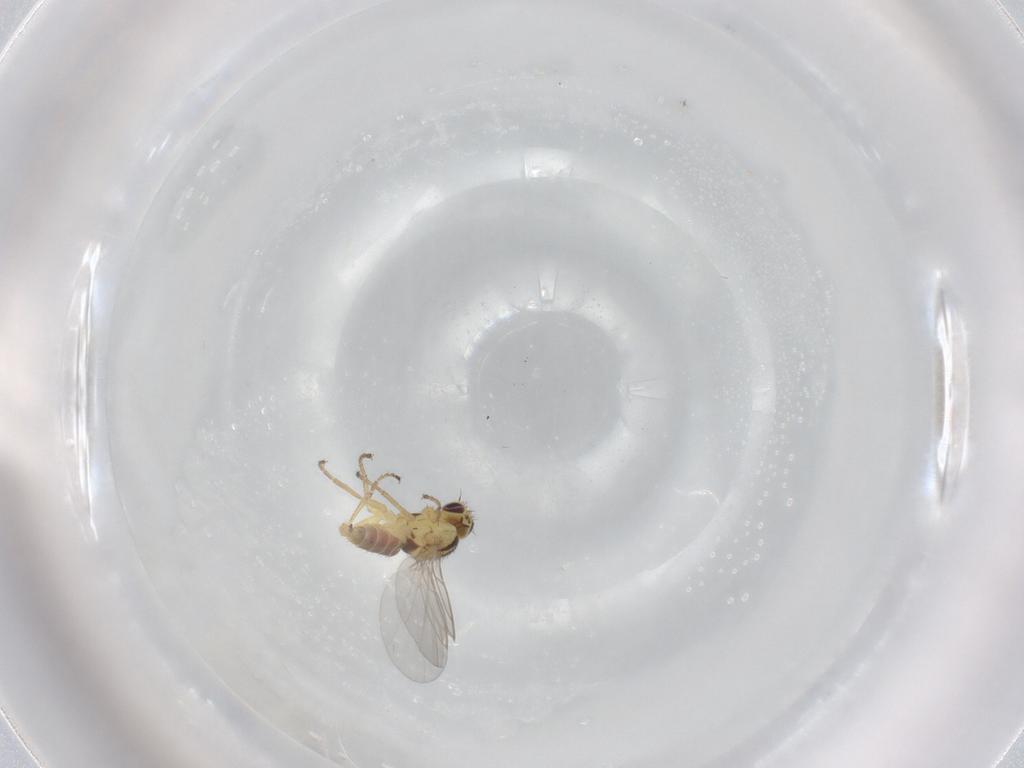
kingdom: Animalia
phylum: Arthropoda
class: Insecta
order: Diptera
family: Agromyzidae
